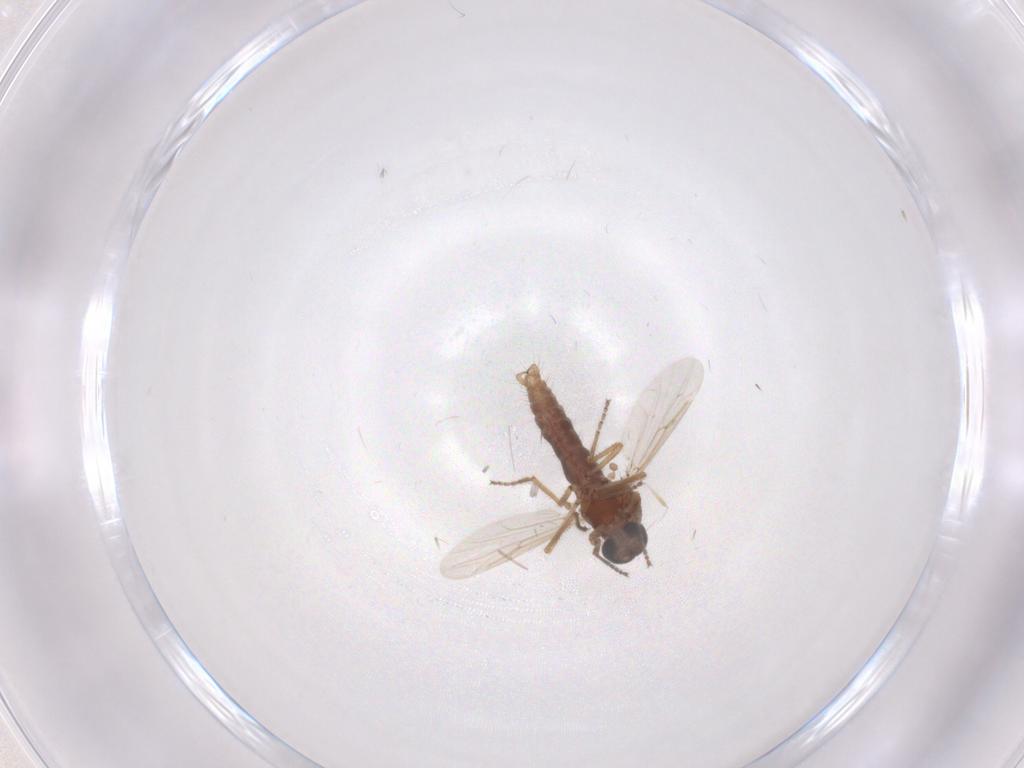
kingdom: Animalia
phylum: Arthropoda
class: Insecta
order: Diptera
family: Ceratopogonidae
